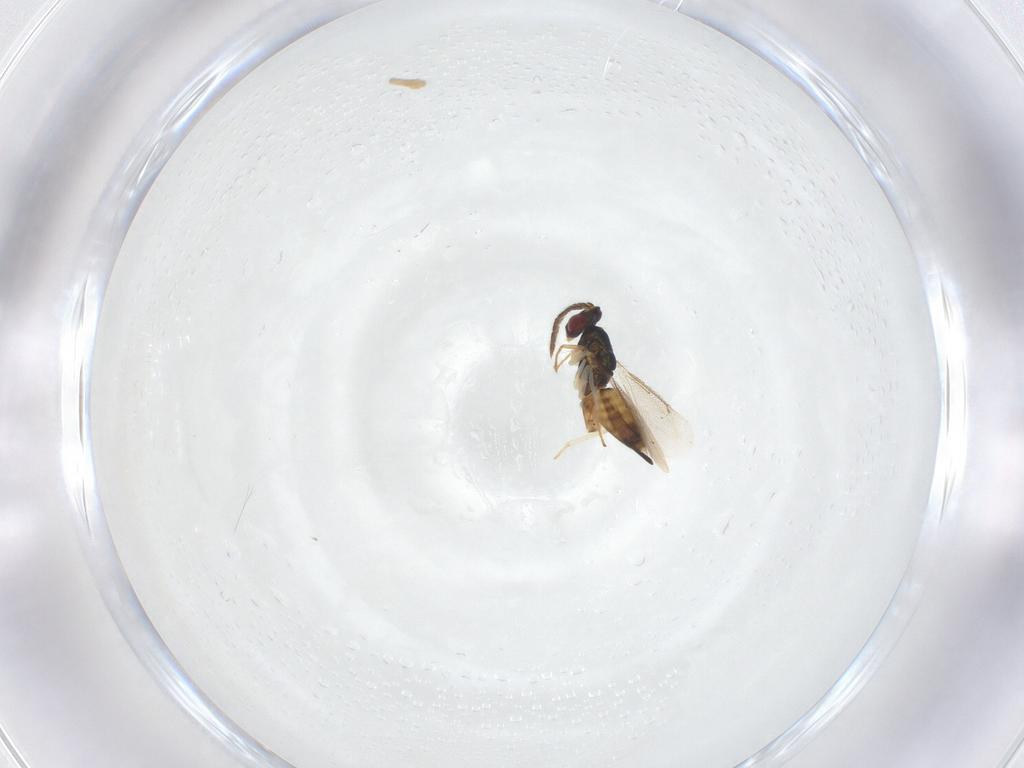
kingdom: Animalia
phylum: Arthropoda
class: Insecta
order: Hymenoptera
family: Eulophidae
